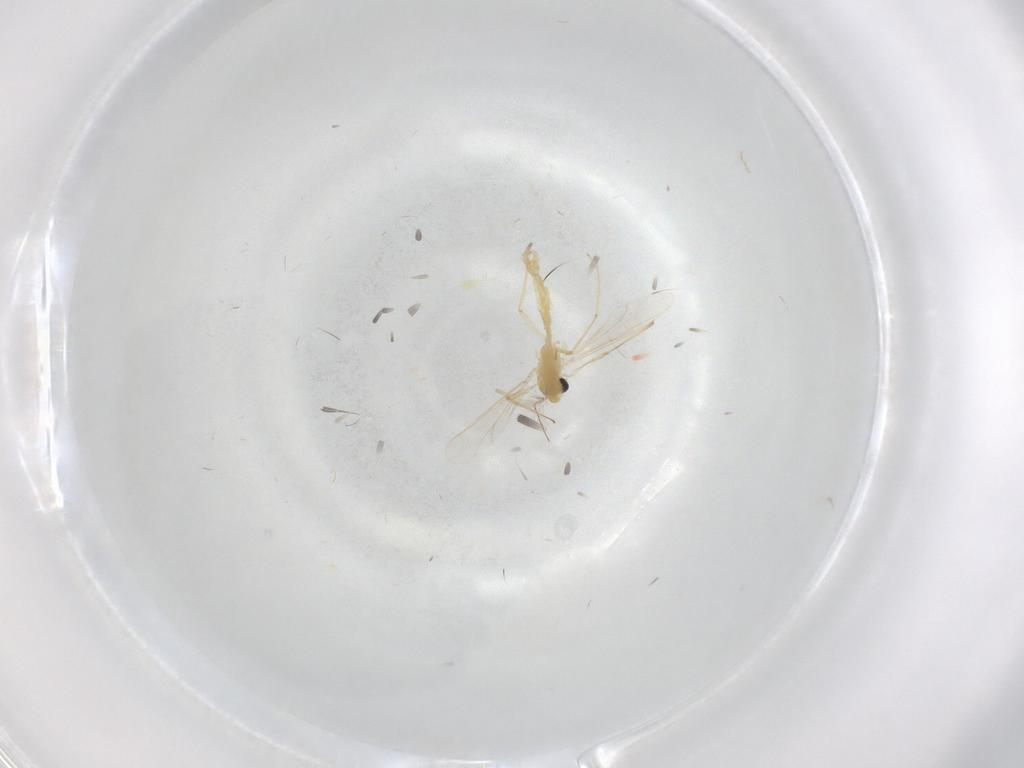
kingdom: Animalia
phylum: Arthropoda
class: Insecta
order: Diptera
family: Chironomidae
